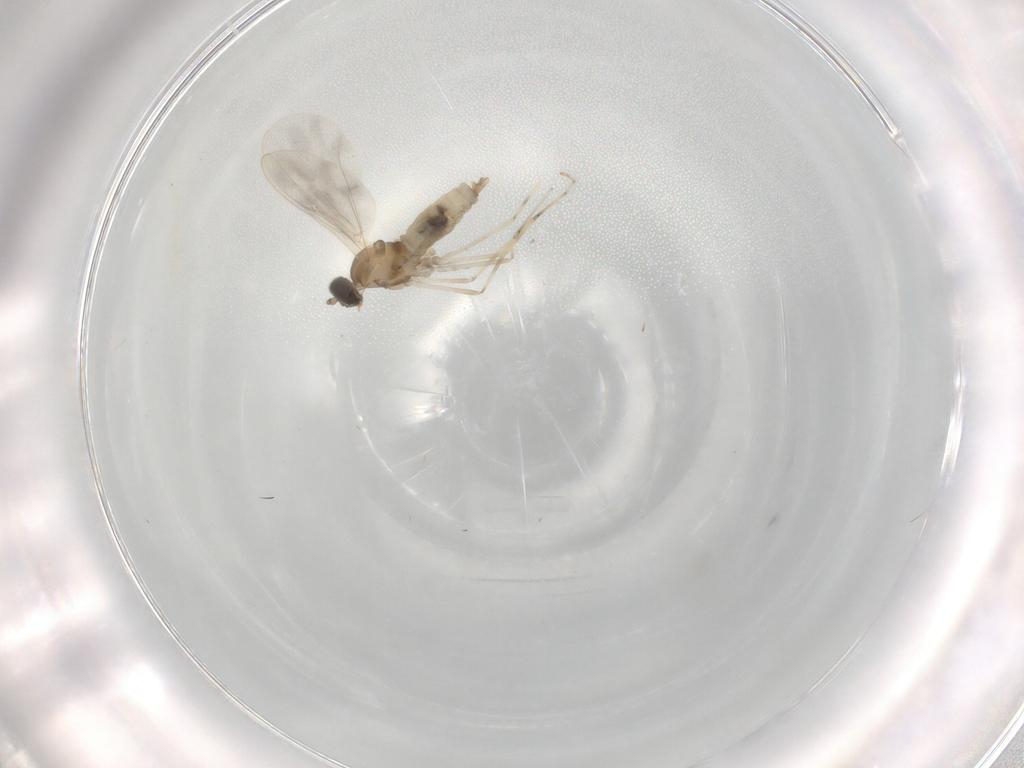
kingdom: Animalia
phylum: Arthropoda
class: Insecta
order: Diptera
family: Cecidomyiidae
